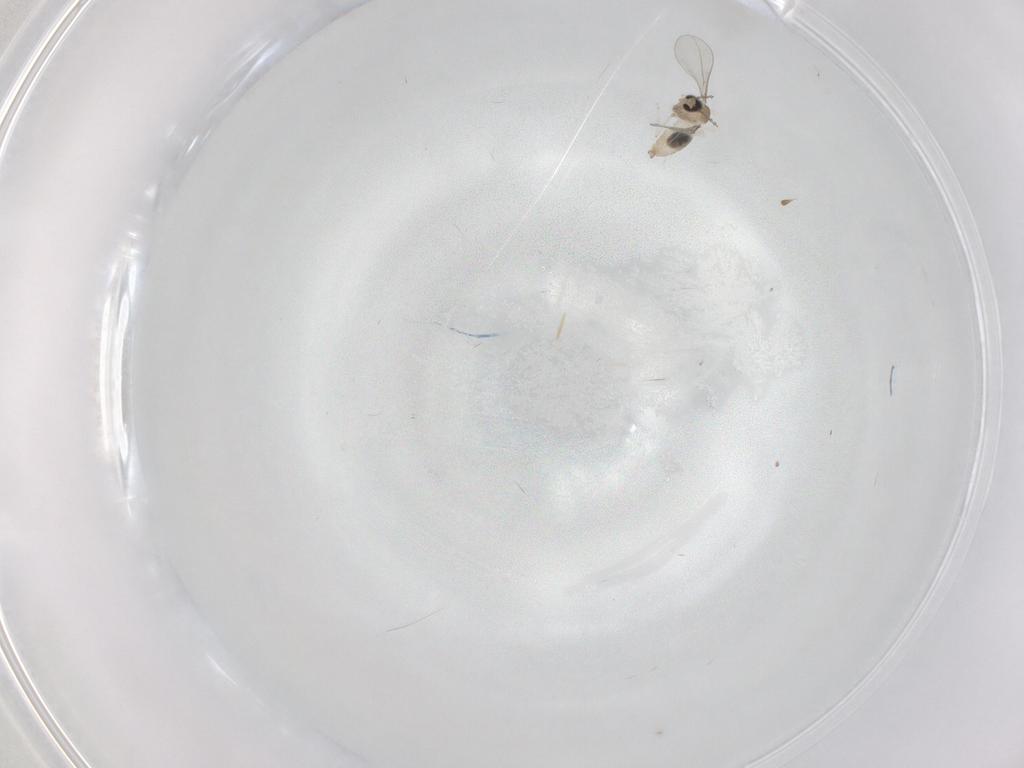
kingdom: Animalia
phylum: Arthropoda
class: Insecta
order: Diptera
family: Cecidomyiidae
